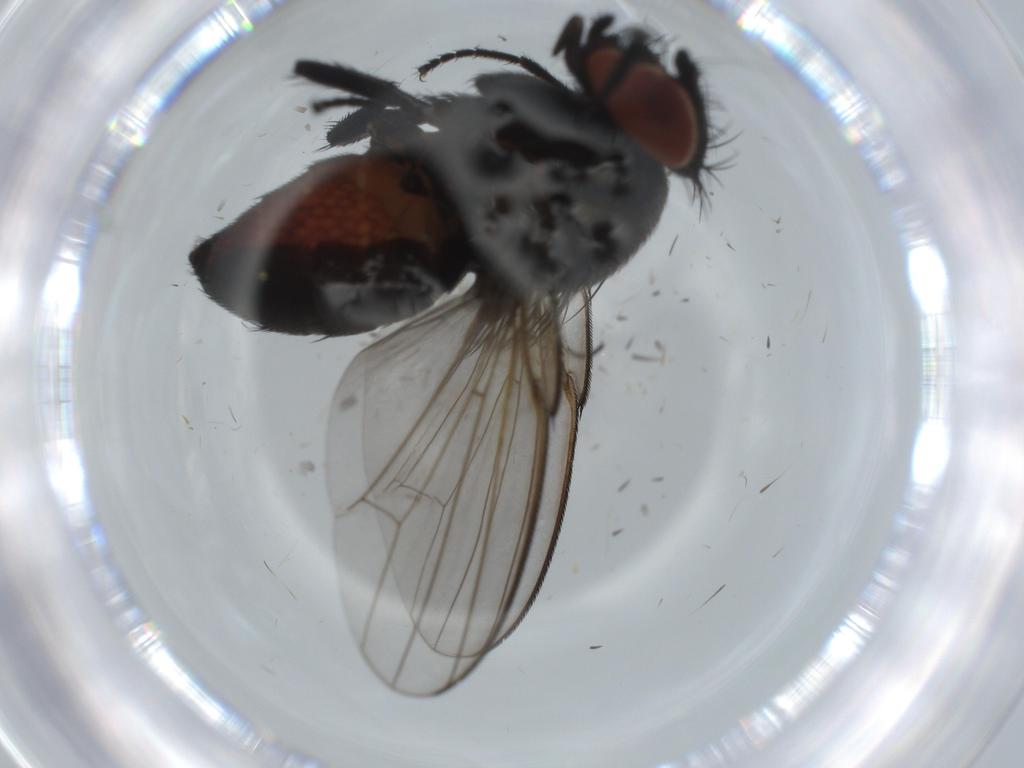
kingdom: Animalia
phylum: Arthropoda
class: Insecta
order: Diptera
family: Milichiidae
